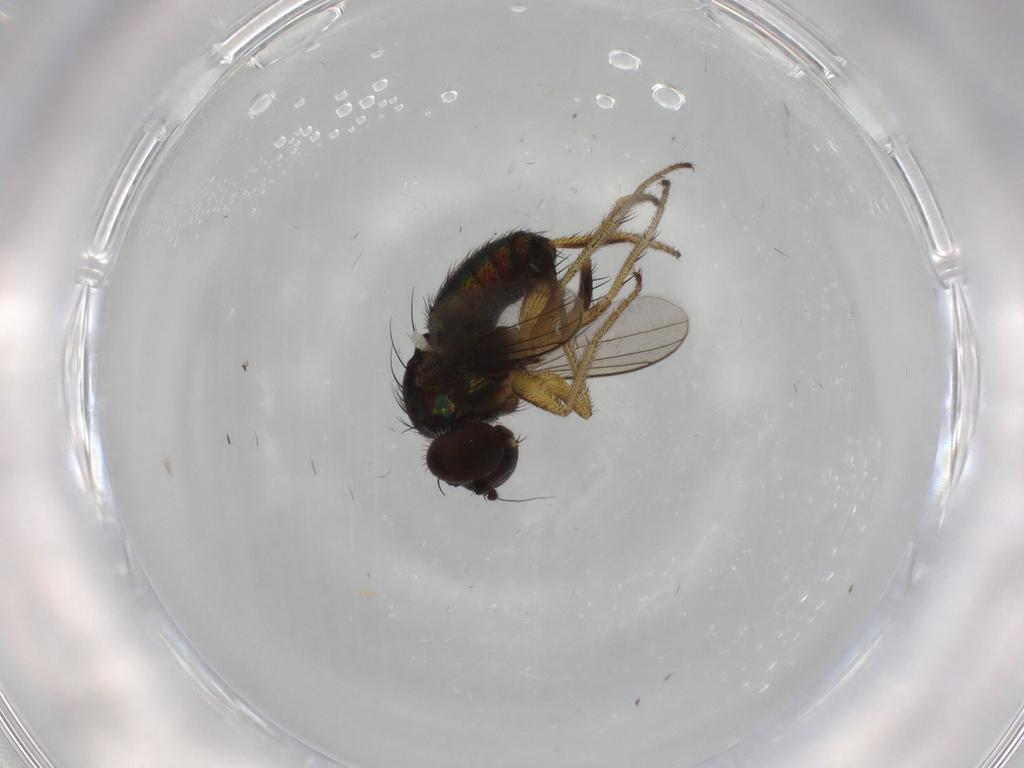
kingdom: Animalia
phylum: Arthropoda
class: Insecta
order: Diptera
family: Dolichopodidae
